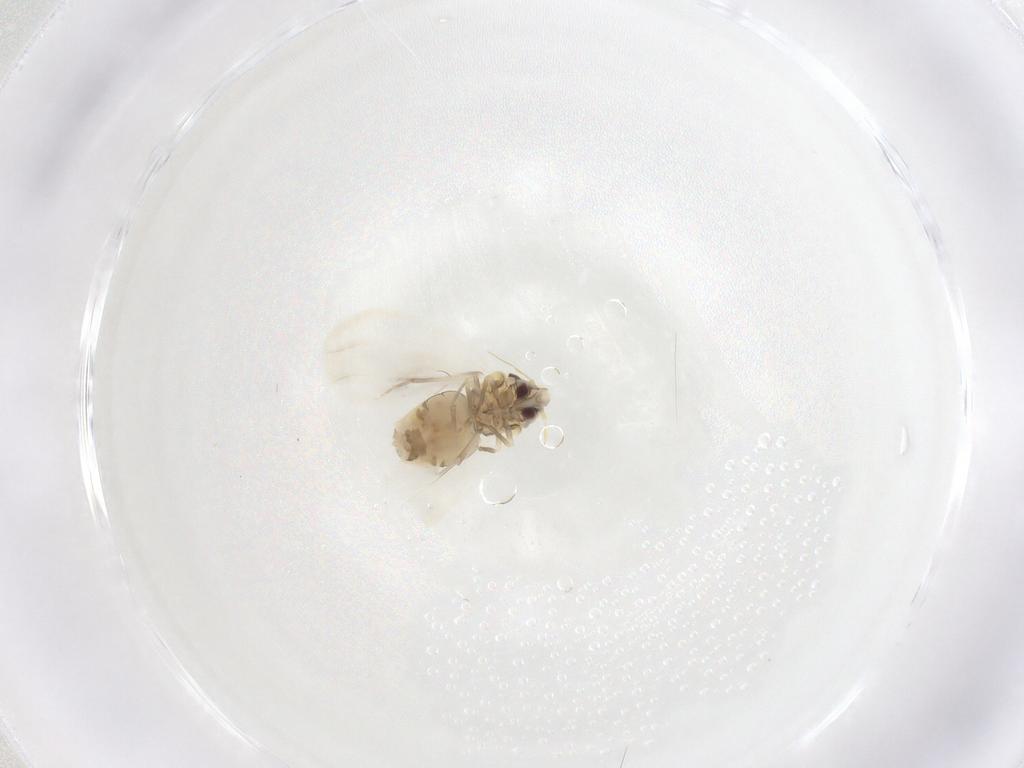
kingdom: Animalia
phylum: Arthropoda
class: Insecta
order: Hemiptera
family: Aleyrodidae
